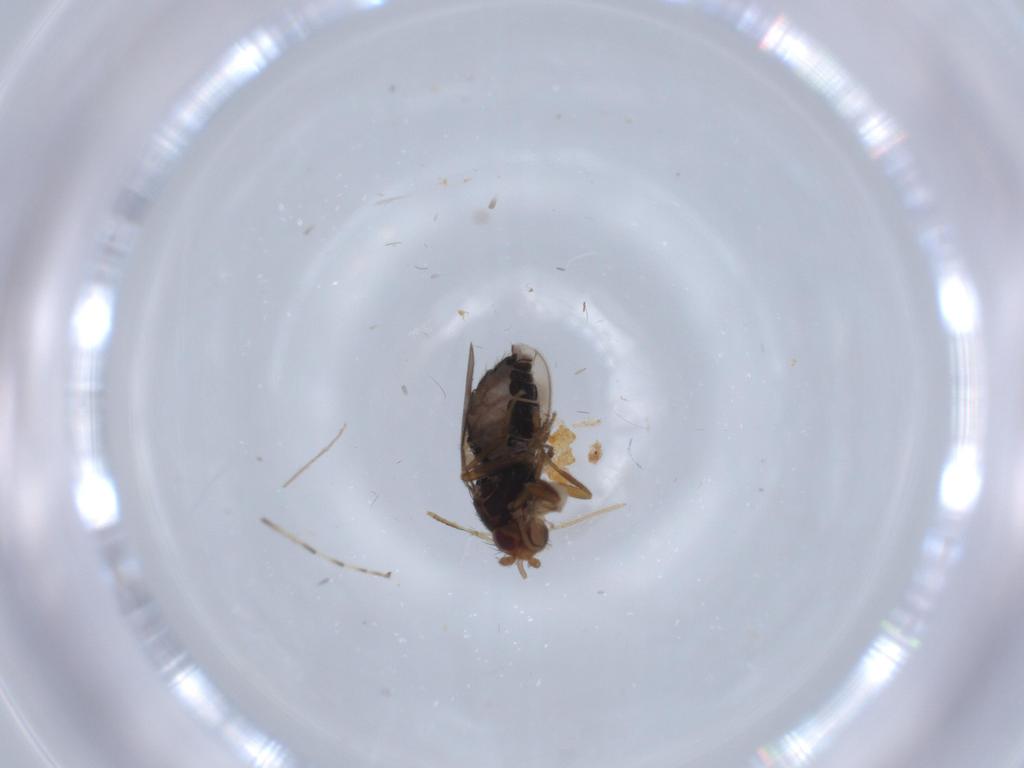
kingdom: Animalia
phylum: Arthropoda
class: Insecta
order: Diptera
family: Sphaeroceridae
